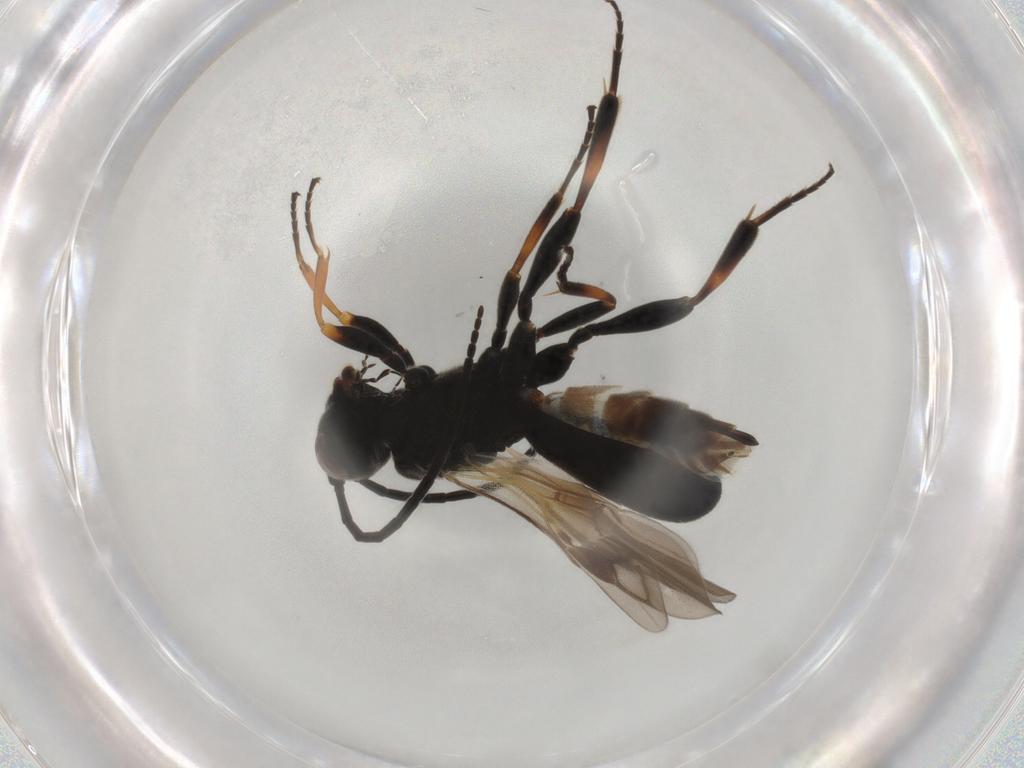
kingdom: Animalia
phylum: Arthropoda
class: Insecta
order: Hymenoptera
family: Braconidae
